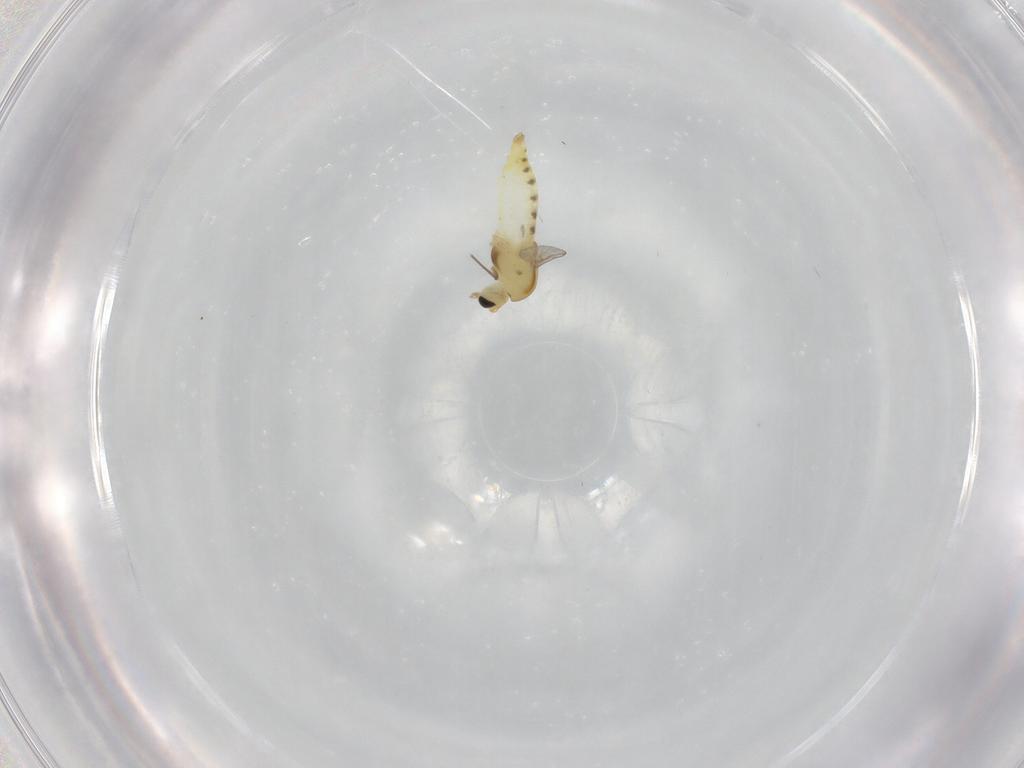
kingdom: Animalia
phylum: Arthropoda
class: Insecta
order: Diptera
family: Chironomidae
